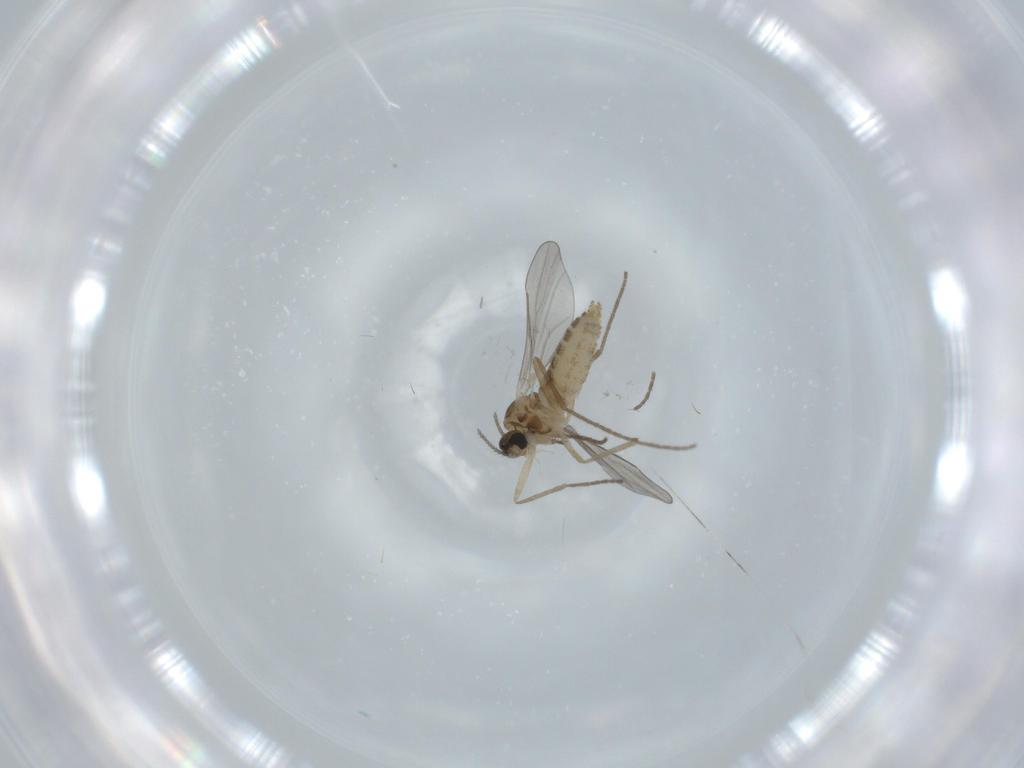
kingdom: Animalia
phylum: Arthropoda
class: Insecta
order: Diptera
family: Cecidomyiidae
